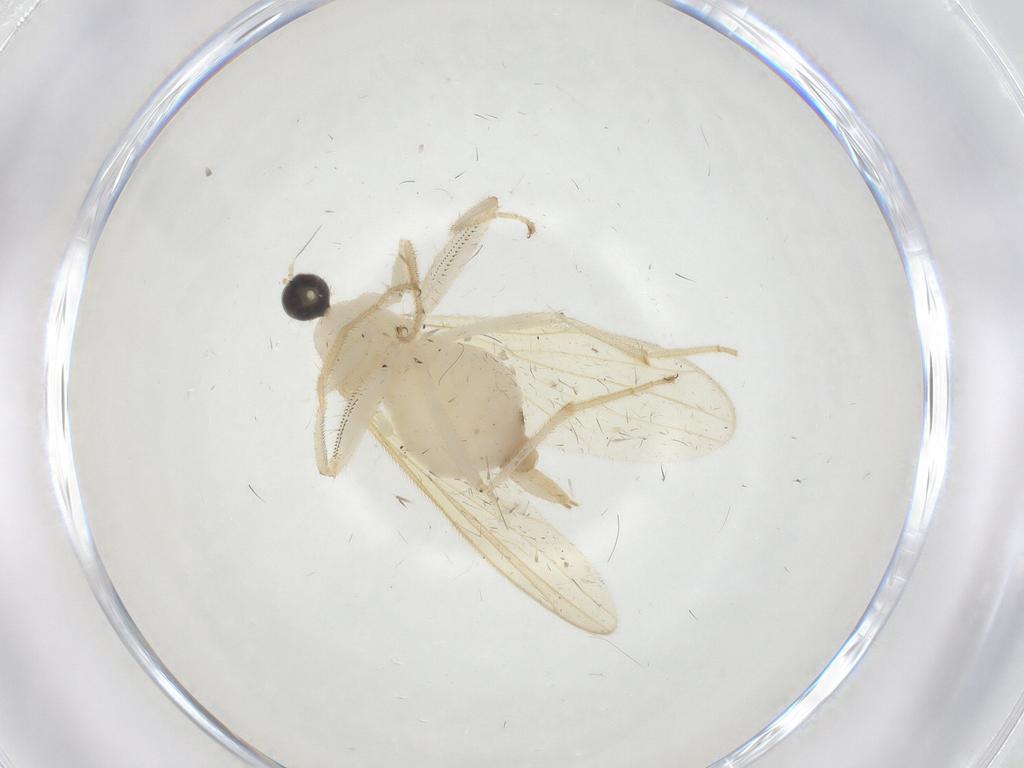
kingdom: Animalia
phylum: Arthropoda
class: Insecta
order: Diptera
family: Hybotidae
